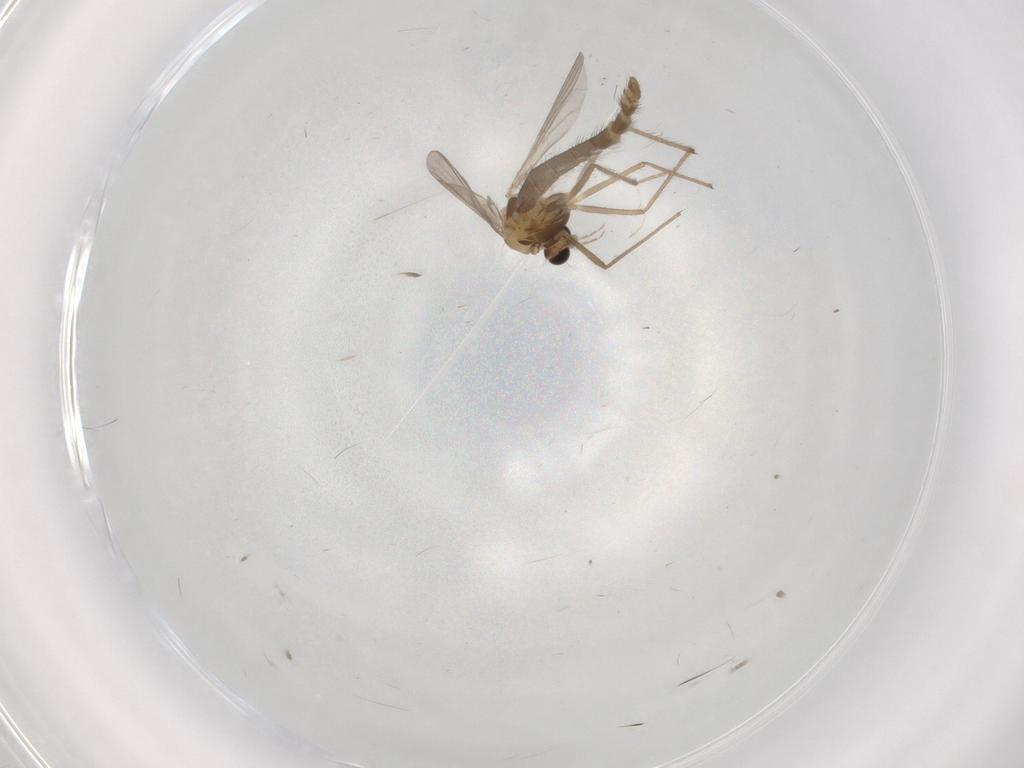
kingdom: Animalia
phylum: Arthropoda
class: Insecta
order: Diptera
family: Chironomidae
